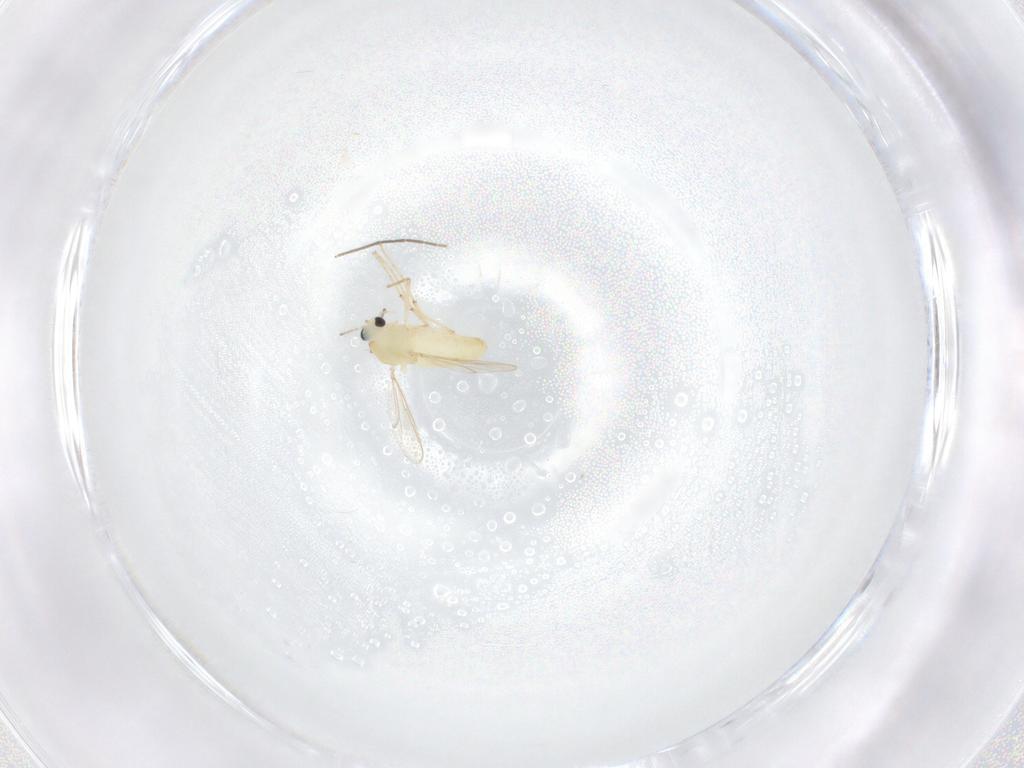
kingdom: Animalia
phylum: Arthropoda
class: Insecta
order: Diptera
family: Chironomidae
